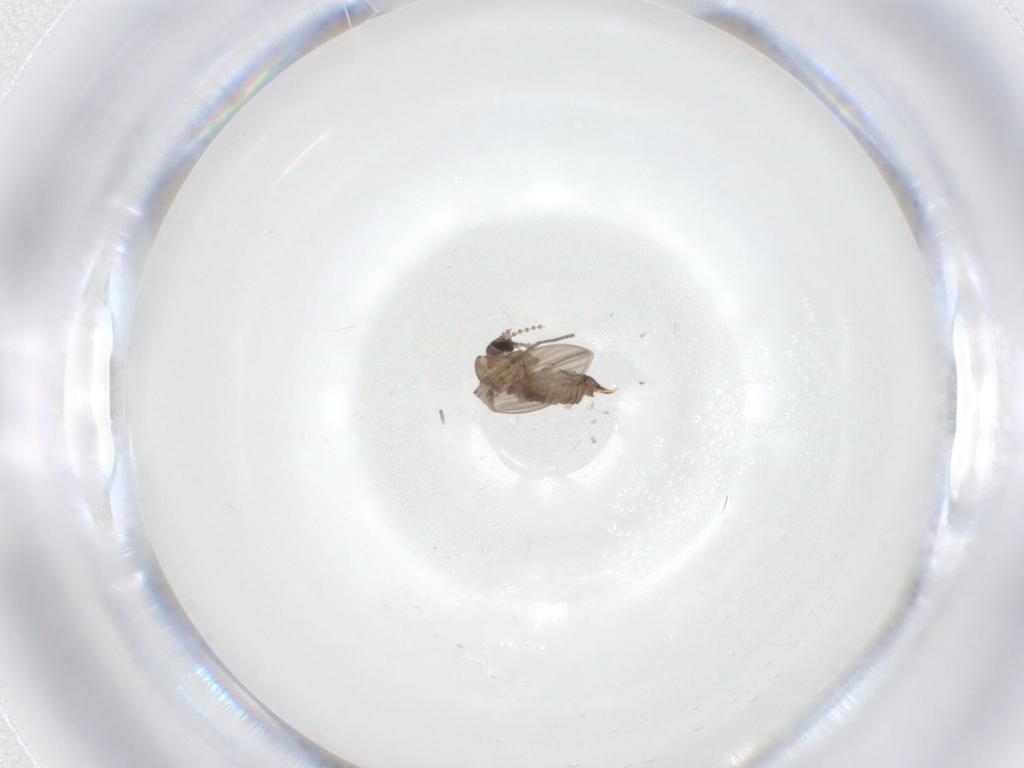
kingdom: Animalia
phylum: Arthropoda
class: Insecta
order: Diptera
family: Psychodidae
